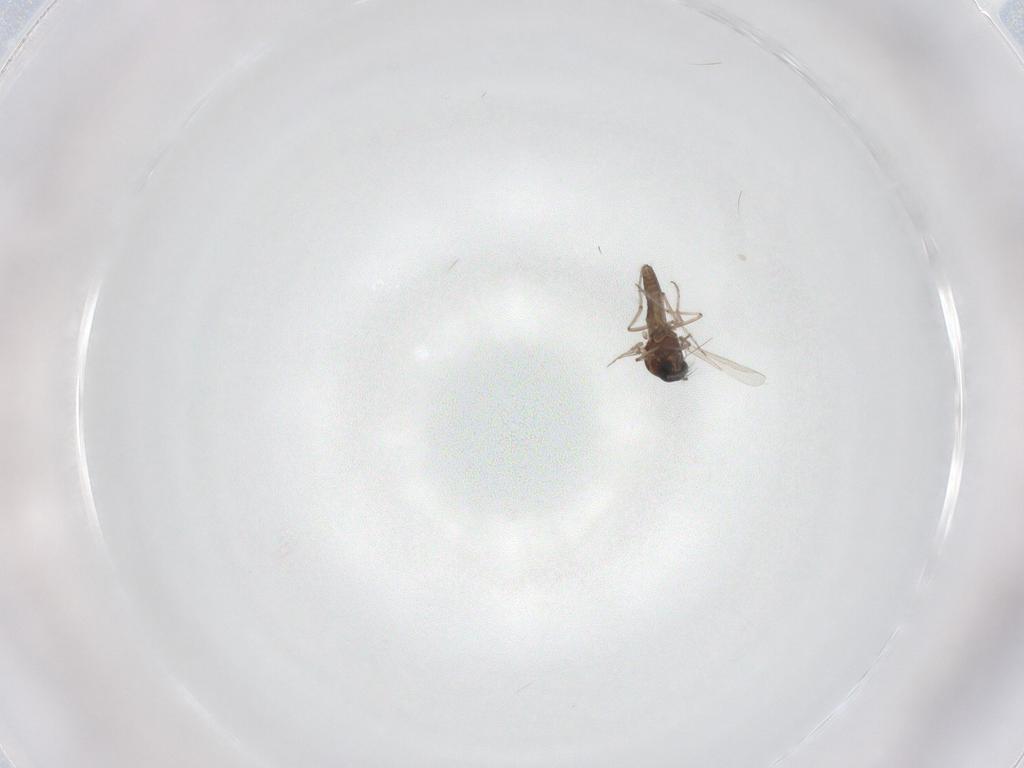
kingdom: Animalia
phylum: Arthropoda
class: Insecta
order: Diptera
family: Ceratopogonidae
